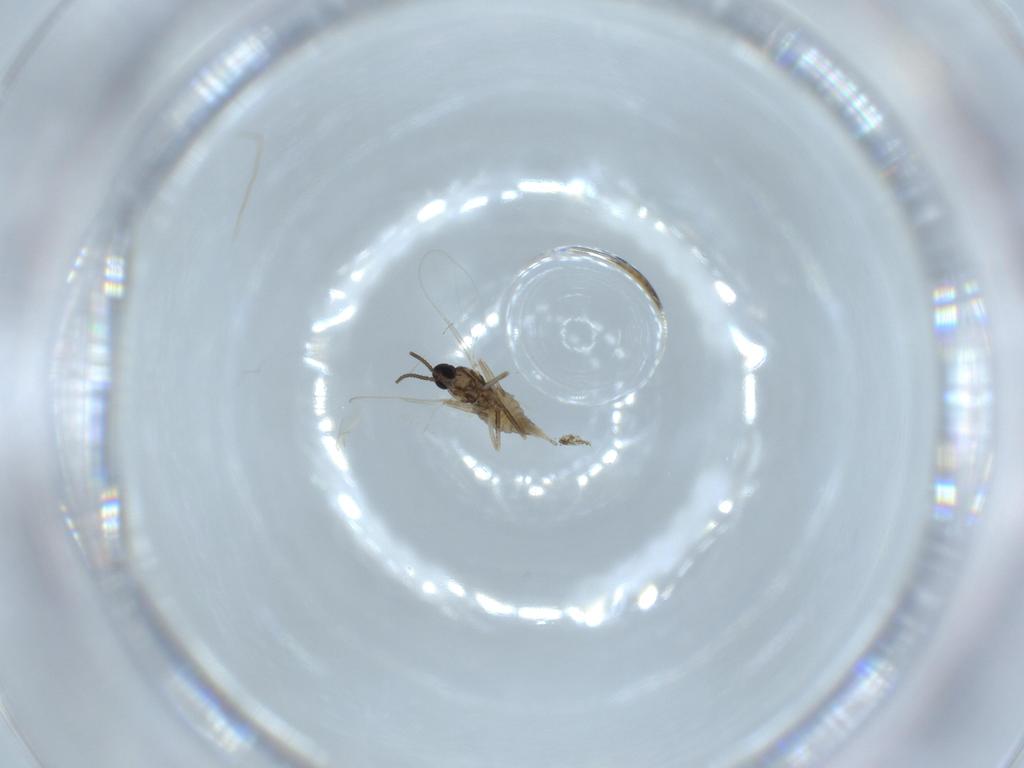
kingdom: Animalia
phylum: Arthropoda
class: Insecta
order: Diptera
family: Cecidomyiidae
